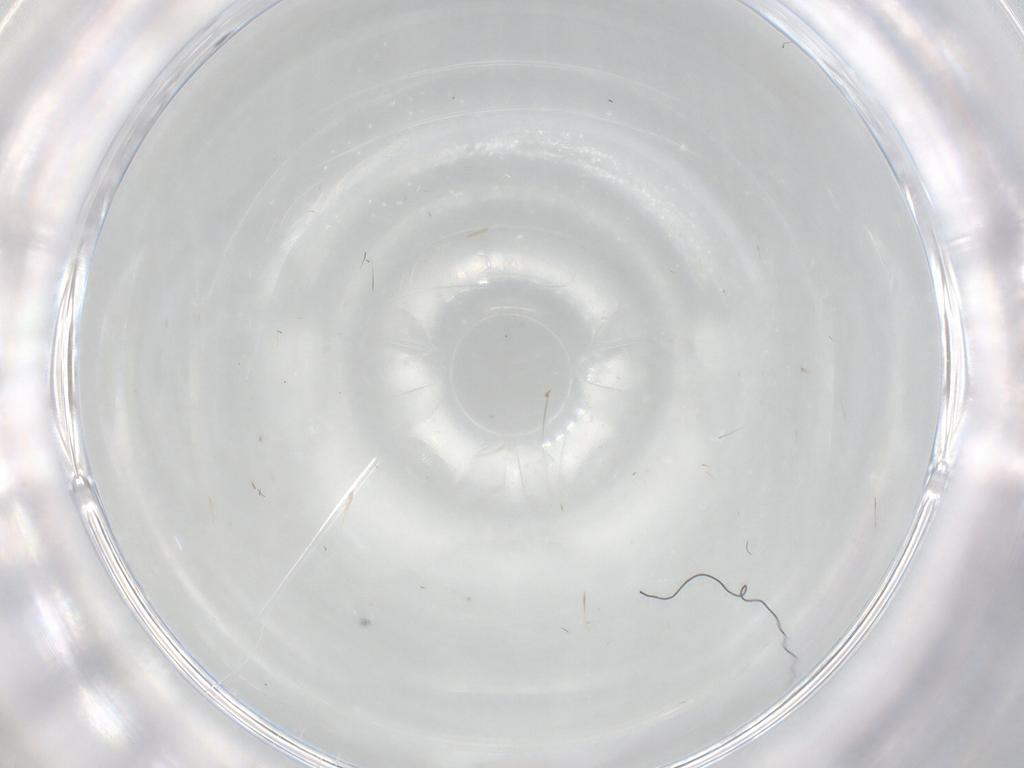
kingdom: Animalia
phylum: Arthropoda
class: Insecta
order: Coleoptera
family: Ptilodactylidae
